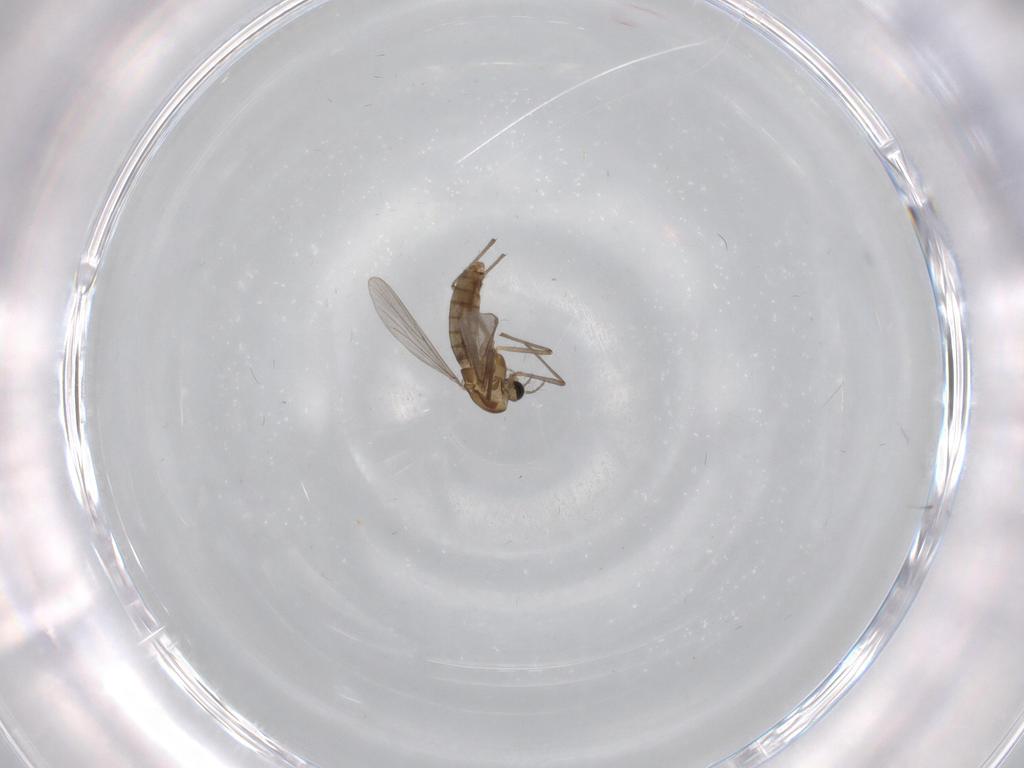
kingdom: Animalia
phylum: Arthropoda
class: Insecta
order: Diptera
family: Chironomidae
